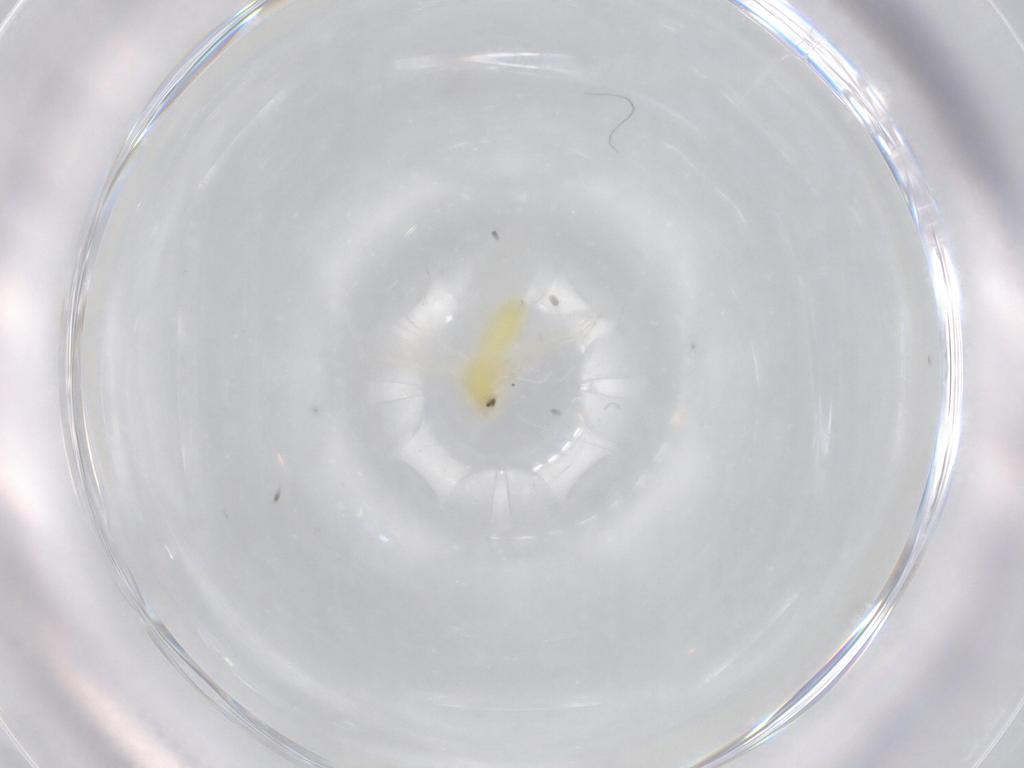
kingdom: Animalia
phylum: Arthropoda
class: Insecta
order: Hemiptera
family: Aleyrodidae
